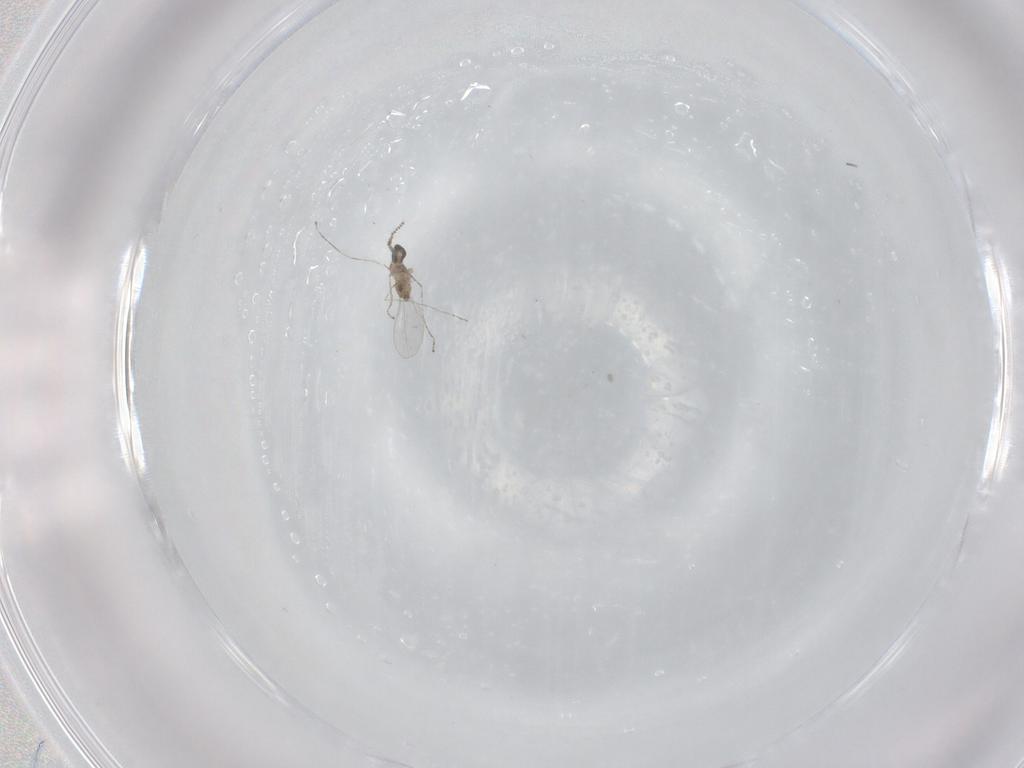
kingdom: Animalia
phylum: Arthropoda
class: Insecta
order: Diptera
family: Cecidomyiidae
